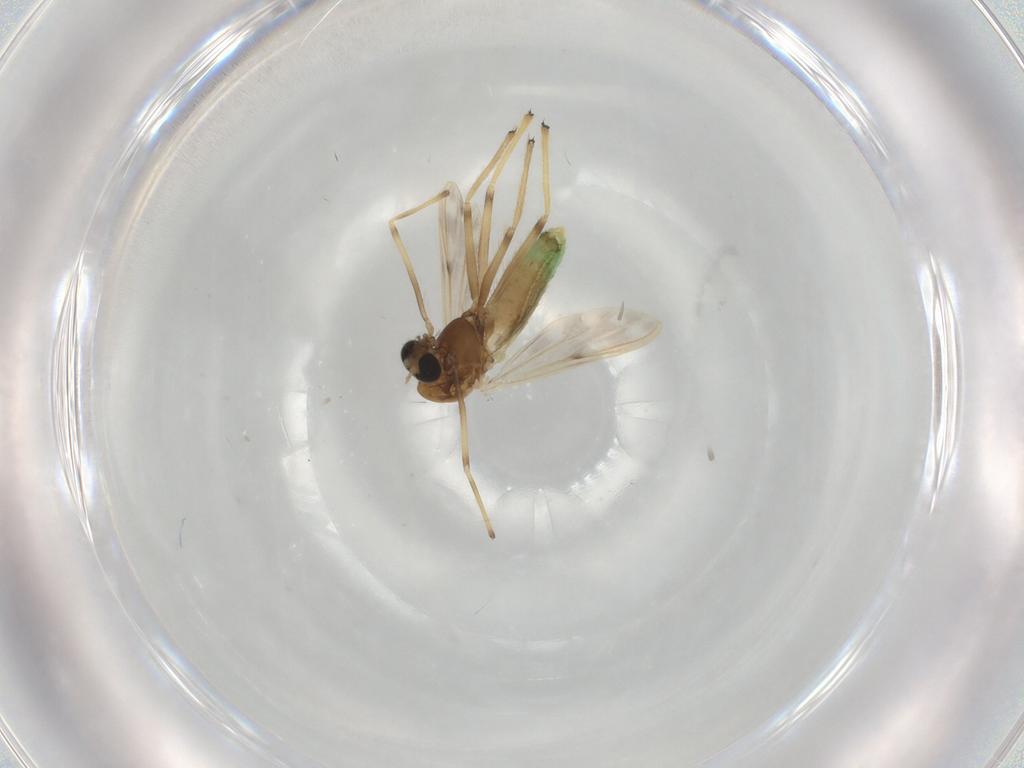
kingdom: Animalia
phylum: Arthropoda
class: Insecta
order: Diptera
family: Chironomidae
